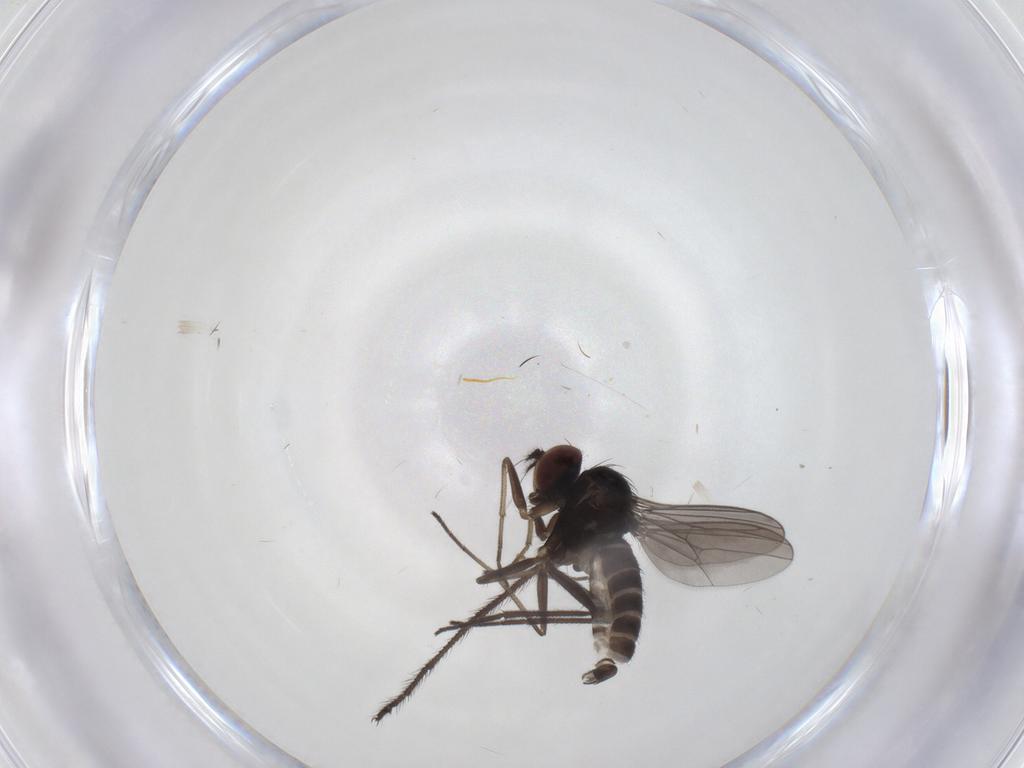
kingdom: Animalia
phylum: Arthropoda
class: Insecta
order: Diptera
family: Dolichopodidae
